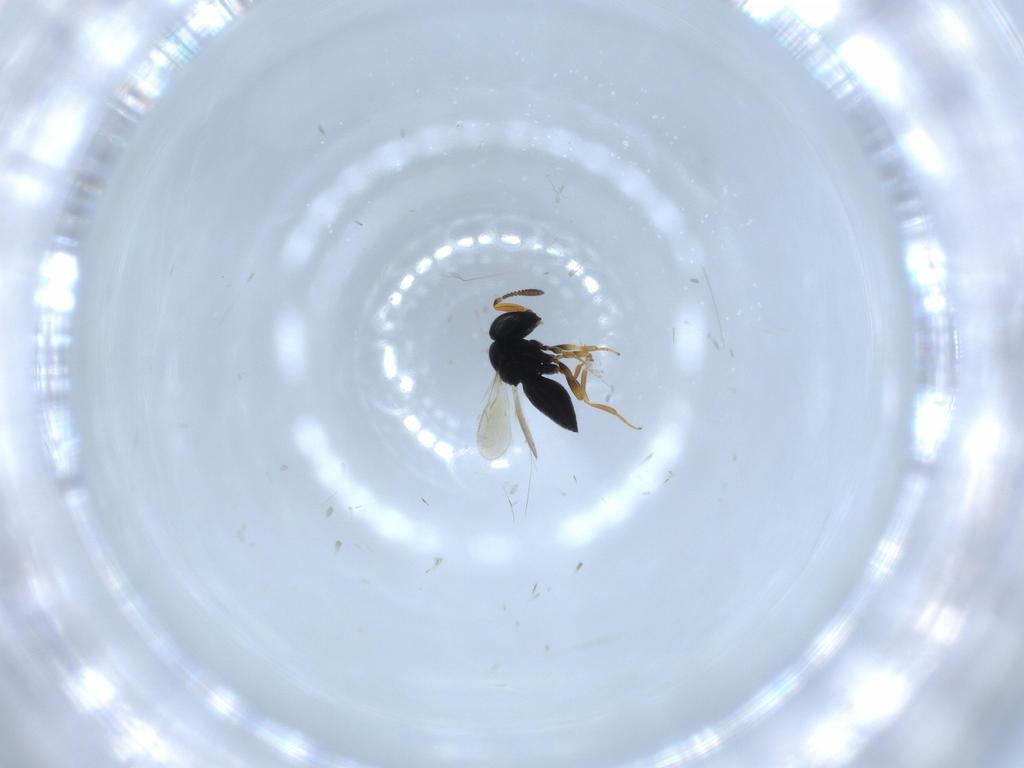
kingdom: Animalia
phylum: Arthropoda
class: Insecta
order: Hymenoptera
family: Scelionidae
